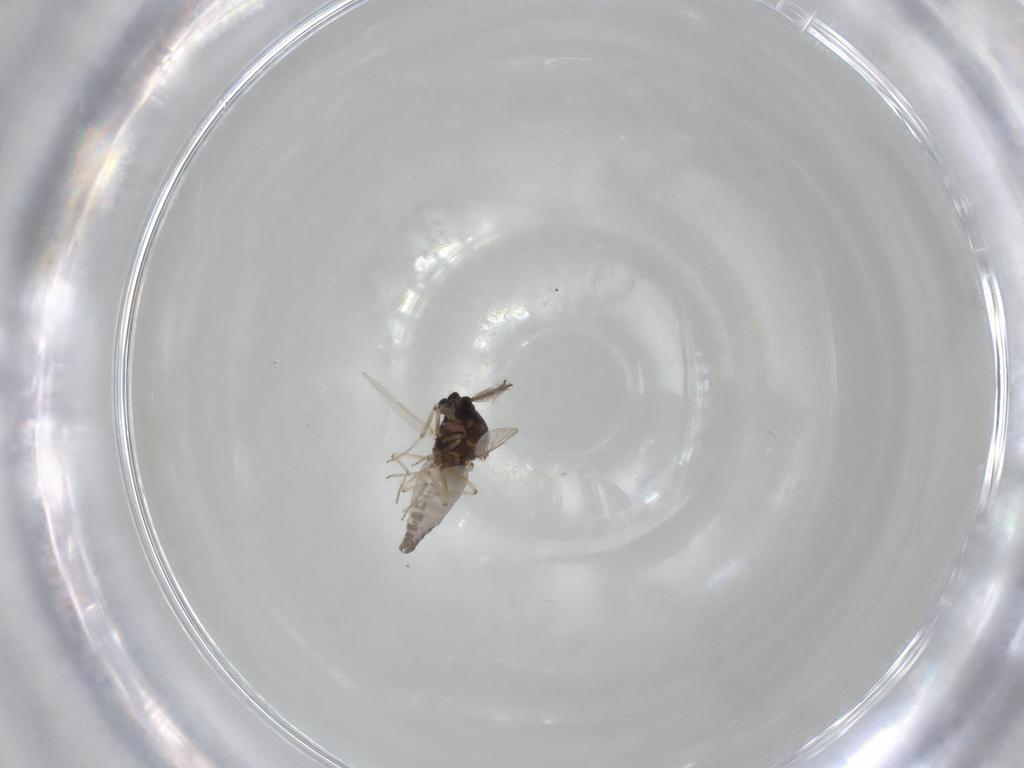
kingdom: Animalia
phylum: Arthropoda
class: Insecta
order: Diptera
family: Ceratopogonidae
